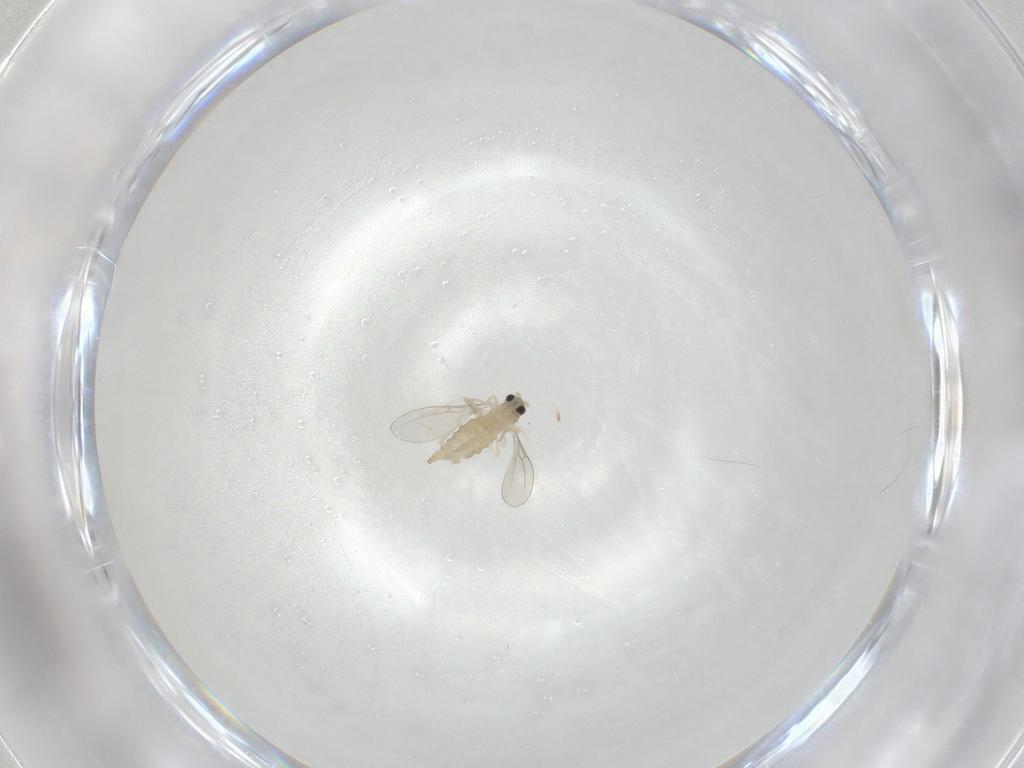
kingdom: Animalia
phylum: Arthropoda
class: Insecta
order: Diptera
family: Cecidomyiidae
